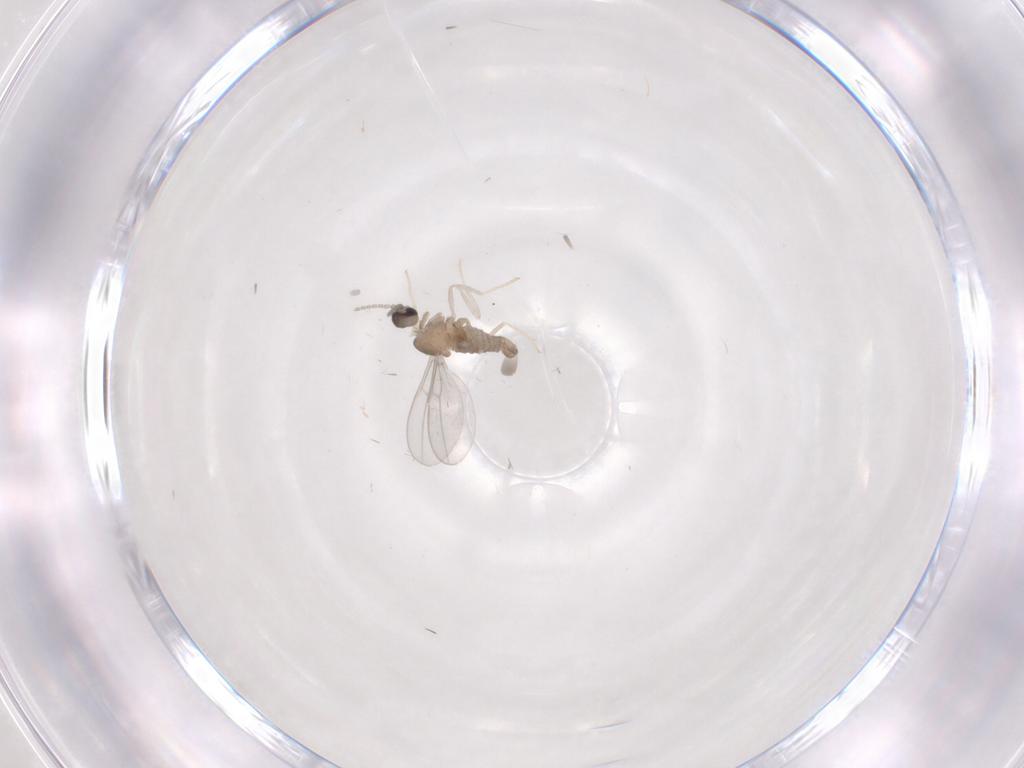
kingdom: Animalia
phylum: Arthropoda
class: Insecta
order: Diptera
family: Cecidomyiidae
